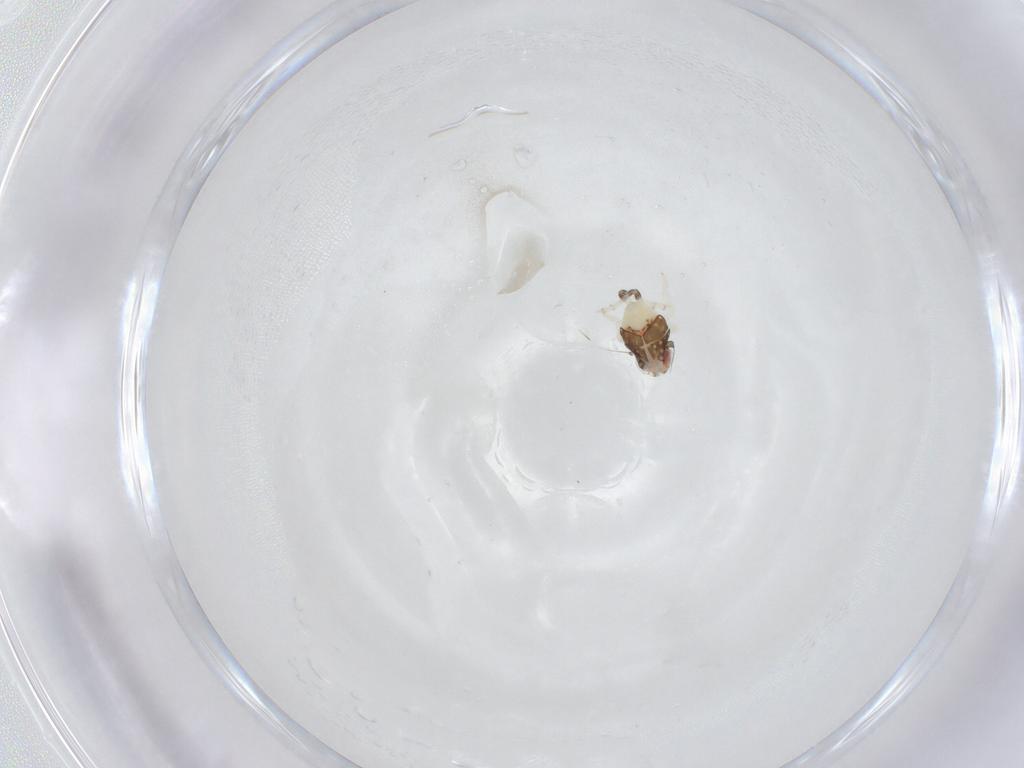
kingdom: Animalia
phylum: Arthropoda
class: Insecta
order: Hemiptera
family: Nogodinidae
